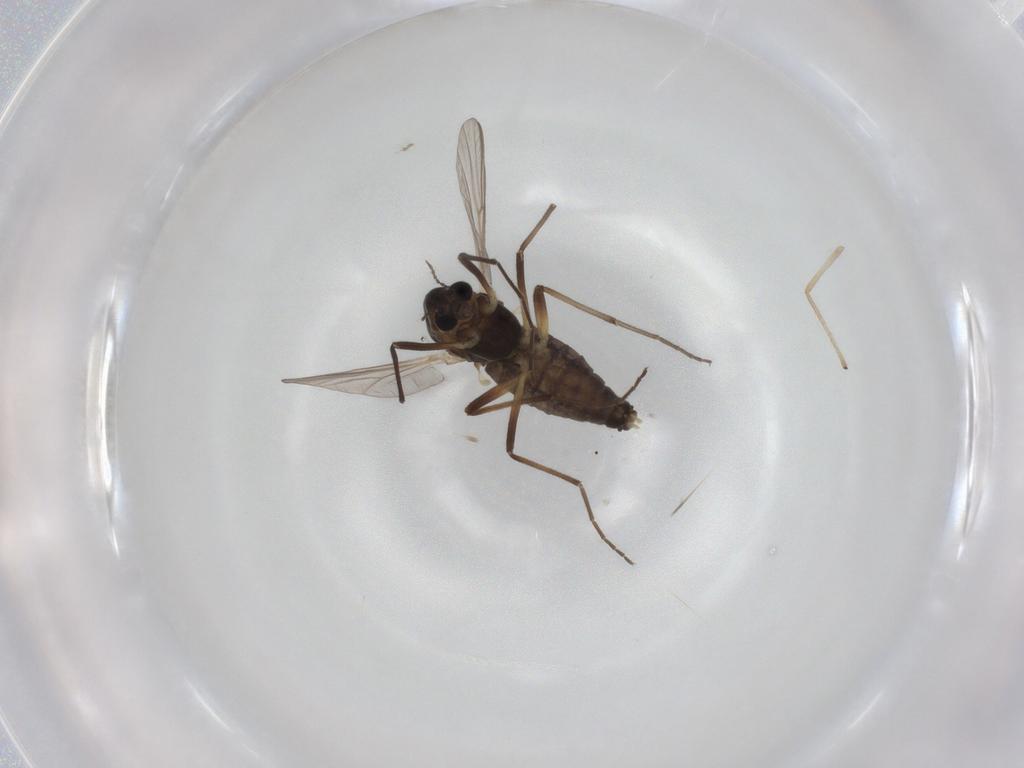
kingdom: Animalia
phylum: Arthropoda
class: Insecta
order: Diptera
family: Chironomidae
